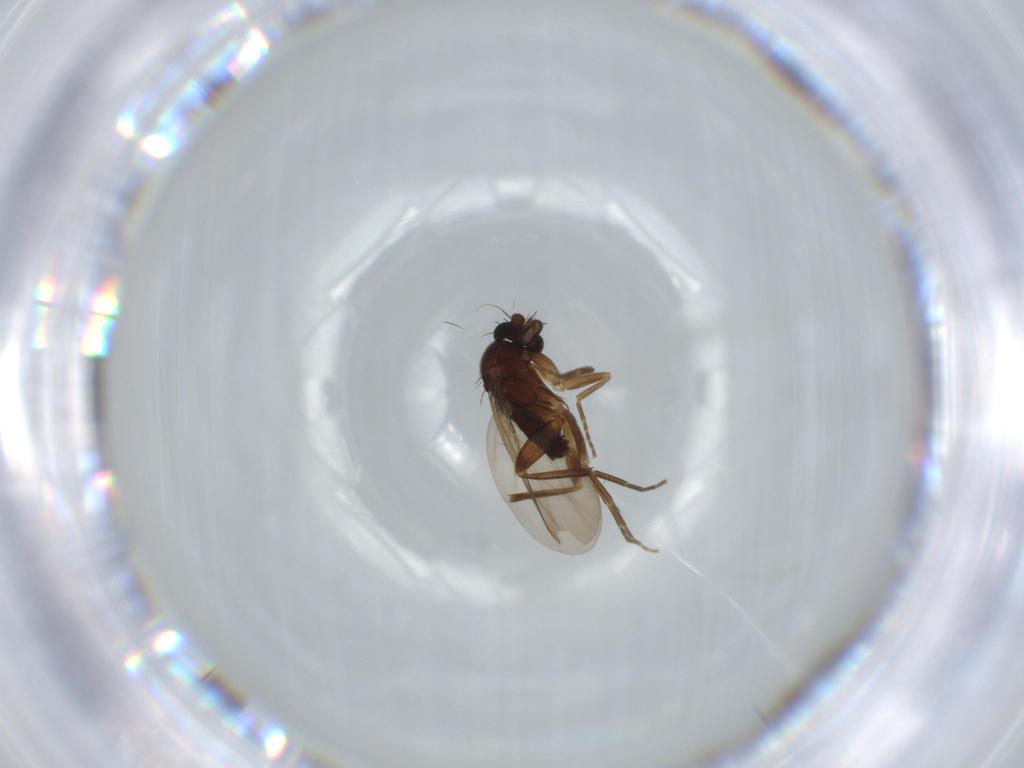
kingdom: Animalia
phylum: Arthropoda
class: Insecta
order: Diptera
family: Phoridae
